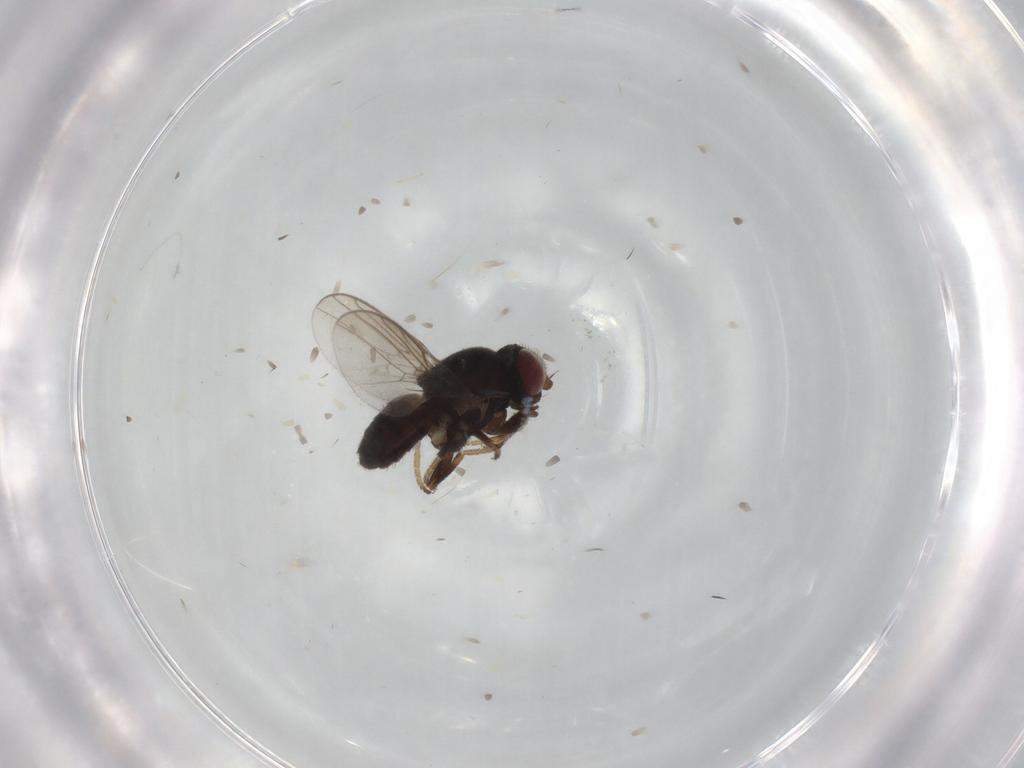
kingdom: Animalia
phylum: Arthropoda
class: Insecta
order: Diptera
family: Chloropidae
